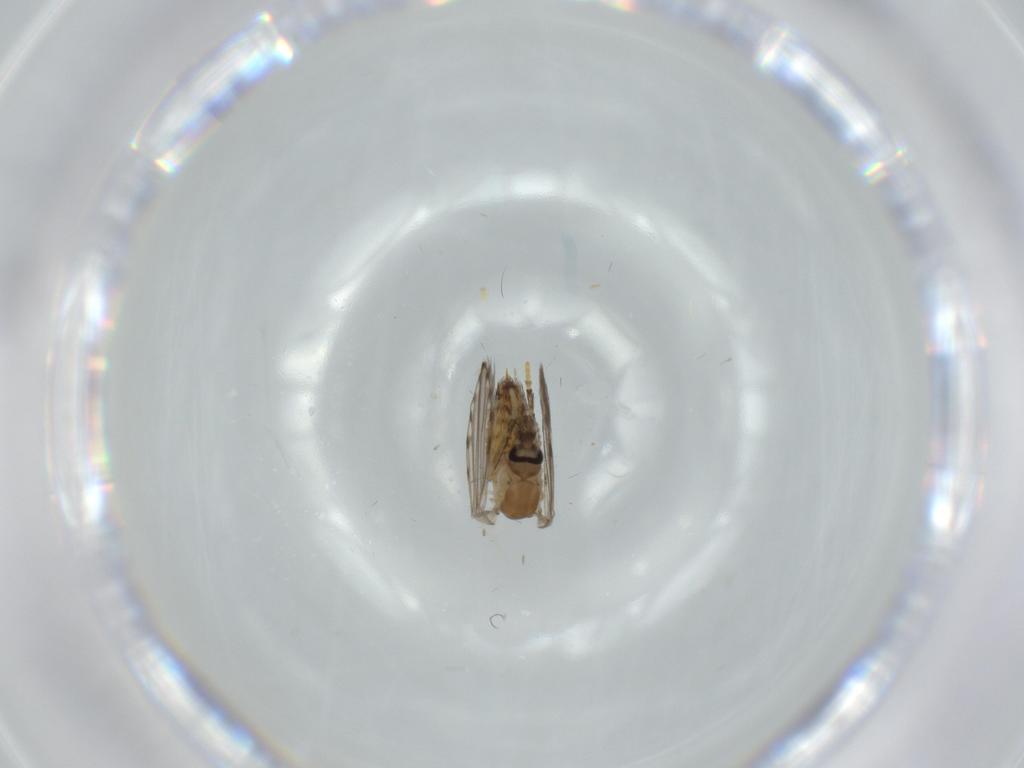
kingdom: Animalia
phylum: Arthropoda
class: Insecta
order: Diptera
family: Psychodidae
